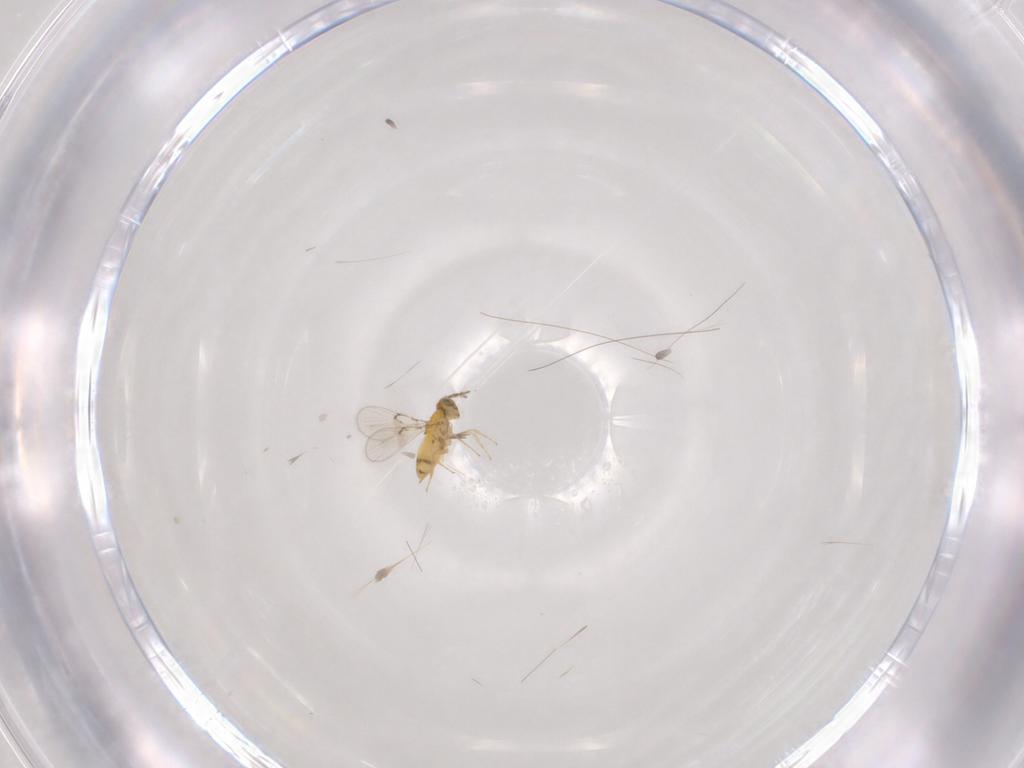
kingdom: Animalia
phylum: Arthropoda
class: Insecta
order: Hymenoptera
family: Trichogrammatidae
